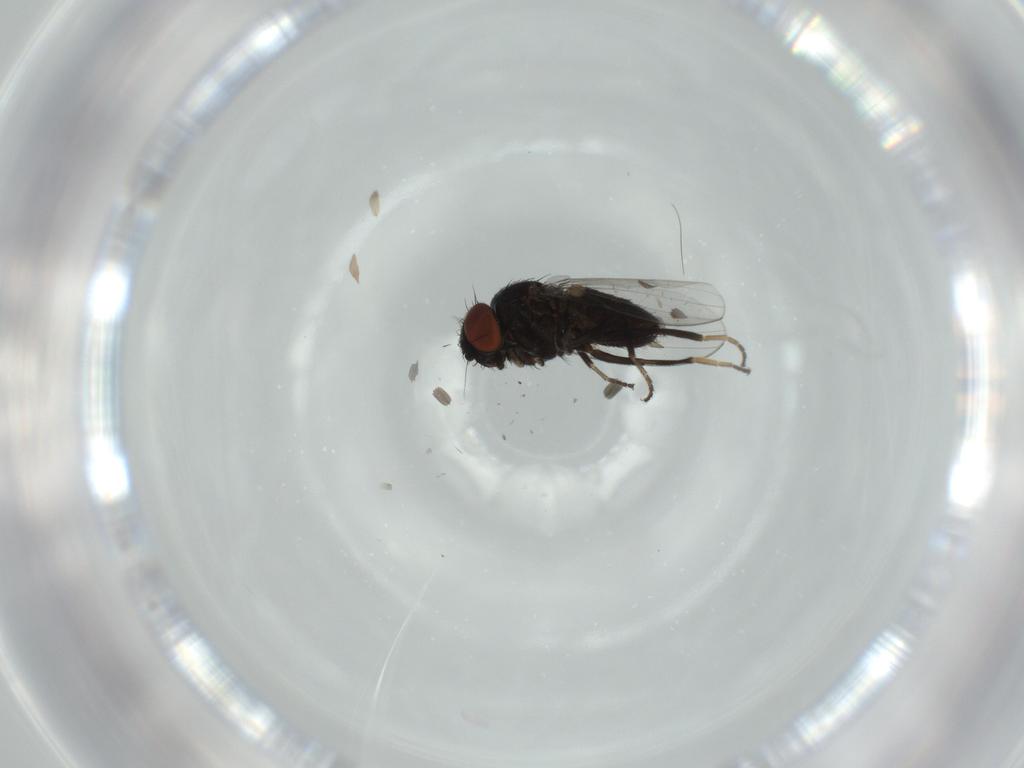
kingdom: Animalia
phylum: Arthropoda
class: Insecta
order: Diptera
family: Milichiidae
